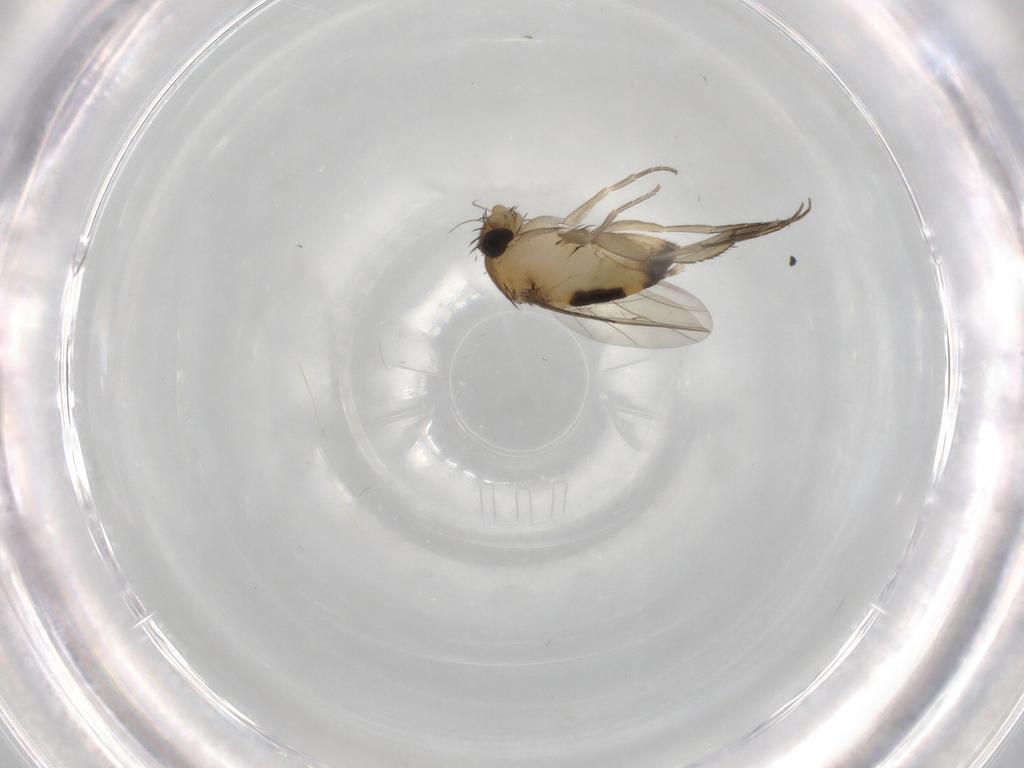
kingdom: Animalia
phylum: Arthropoda
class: Insecta
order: Diptera
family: Phoridae
